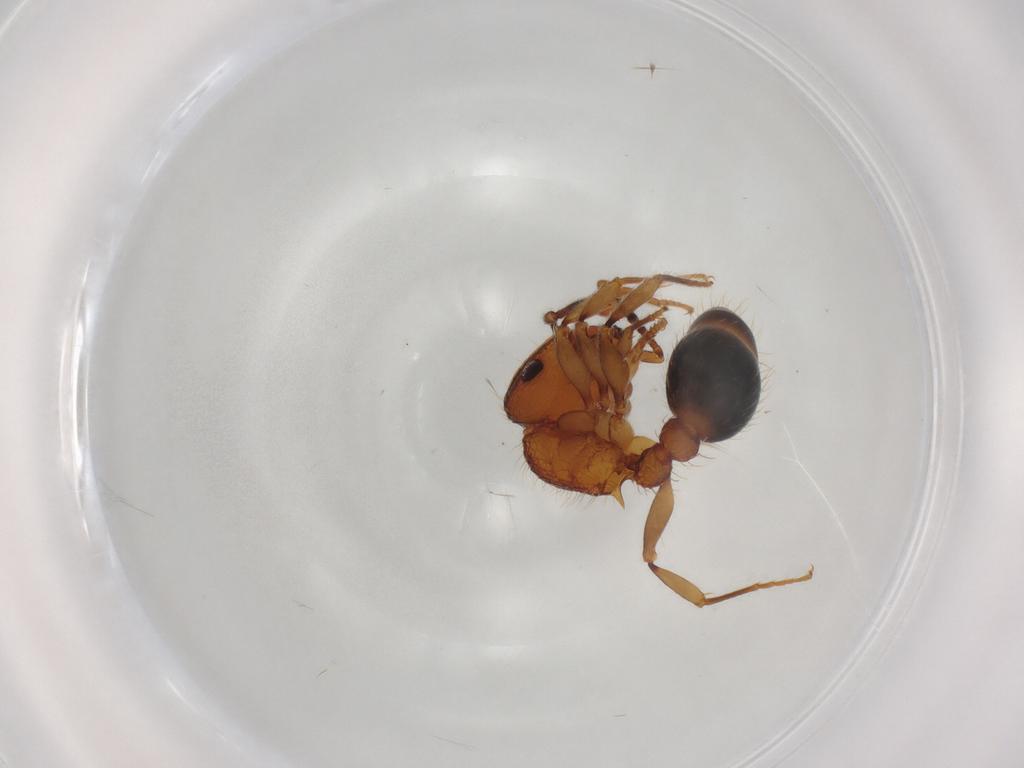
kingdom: Animalia
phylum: Arthropoda
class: Insecta
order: Hymenoptera
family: Formicidae
